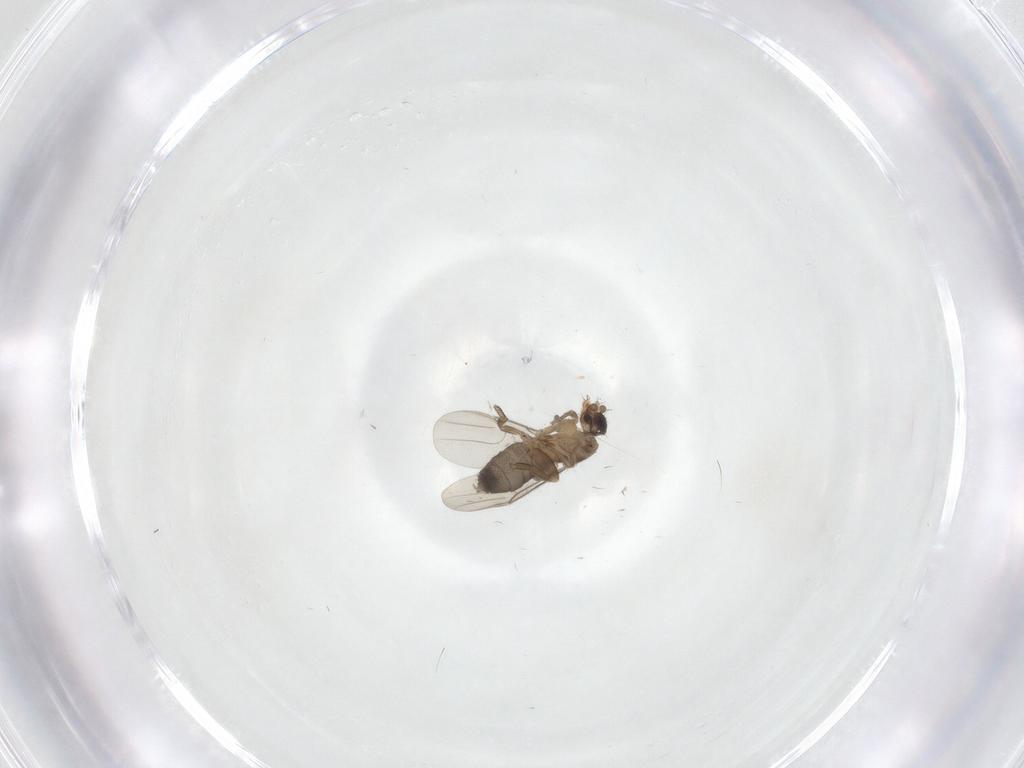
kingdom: Animalia
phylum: Arthropoda
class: Insecta
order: Diptera
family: Phoridae
